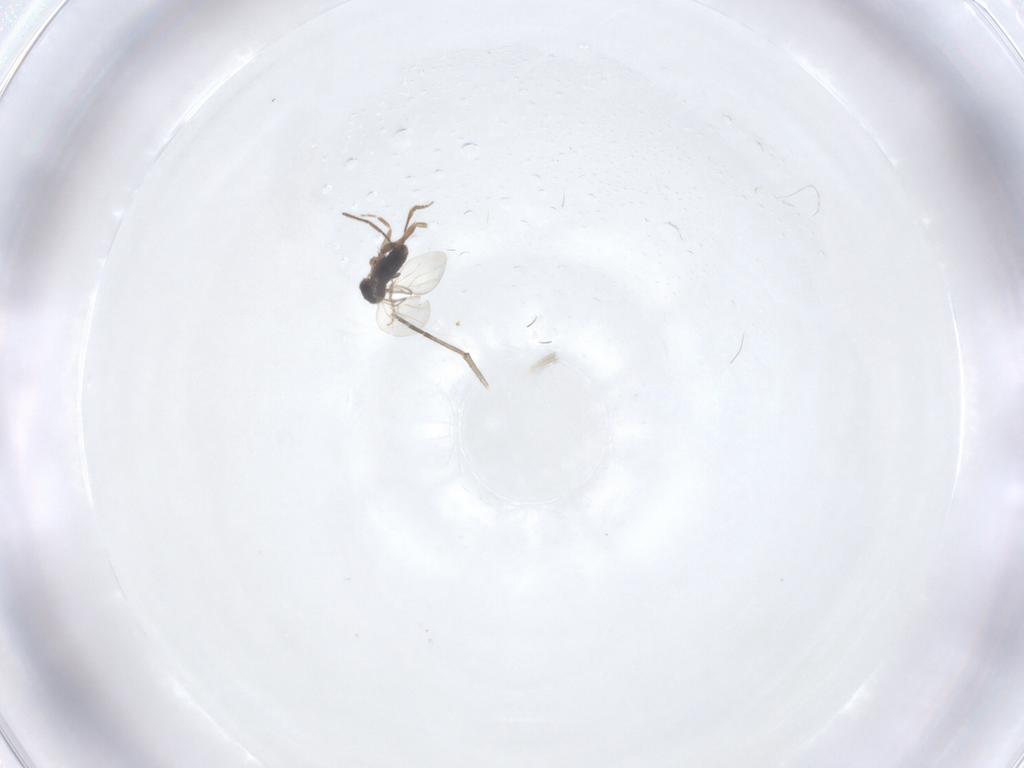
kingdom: Animalia
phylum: Arthropoda
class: Insecta
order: Diptera
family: Phoridae
